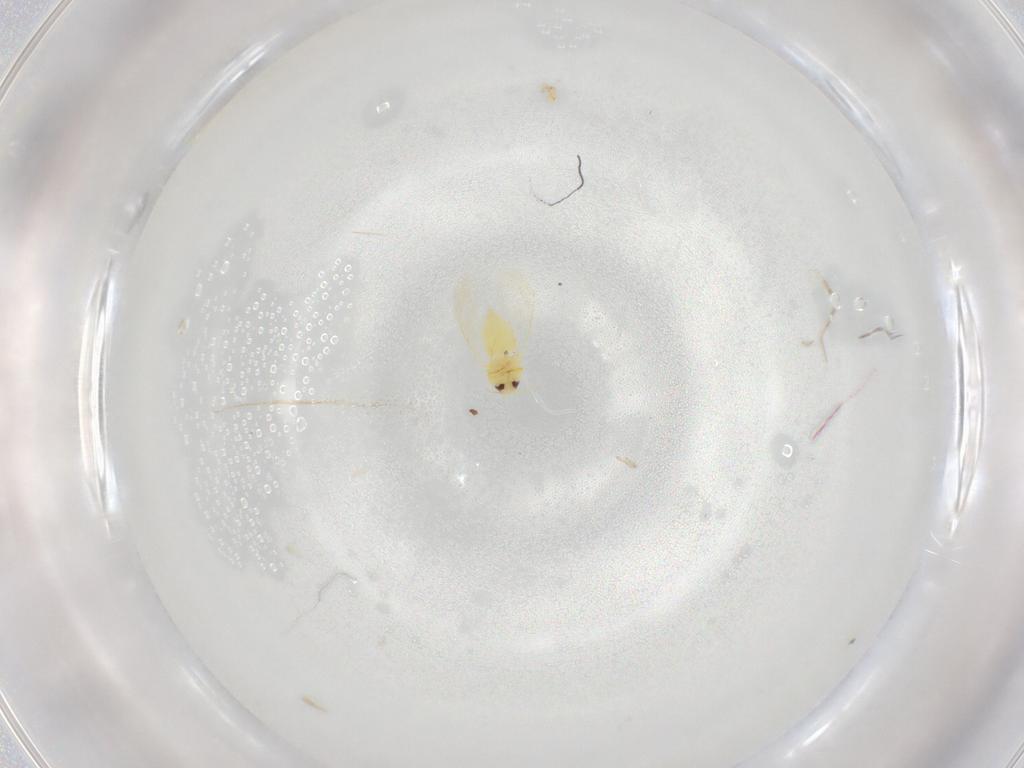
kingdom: Animalia
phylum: Arthropoda
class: Insecta
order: Hemiptera
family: Aleyrodidae
